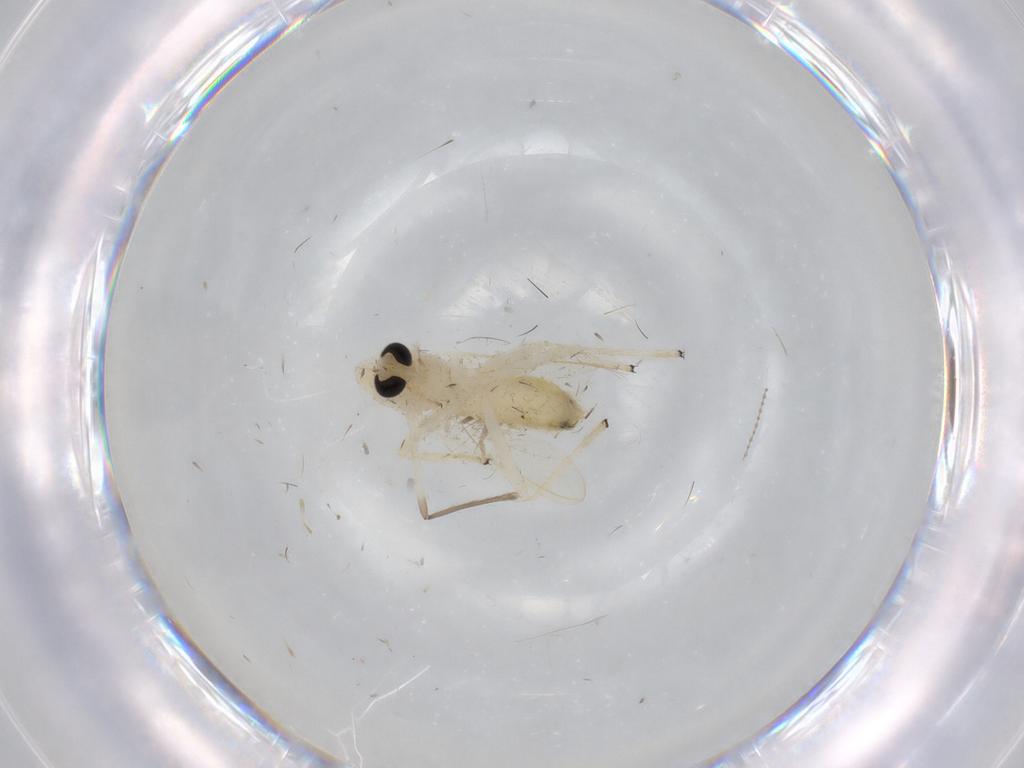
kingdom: Animalia
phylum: Arthropoda
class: Insecta
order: Diptera
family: Chironomidae
